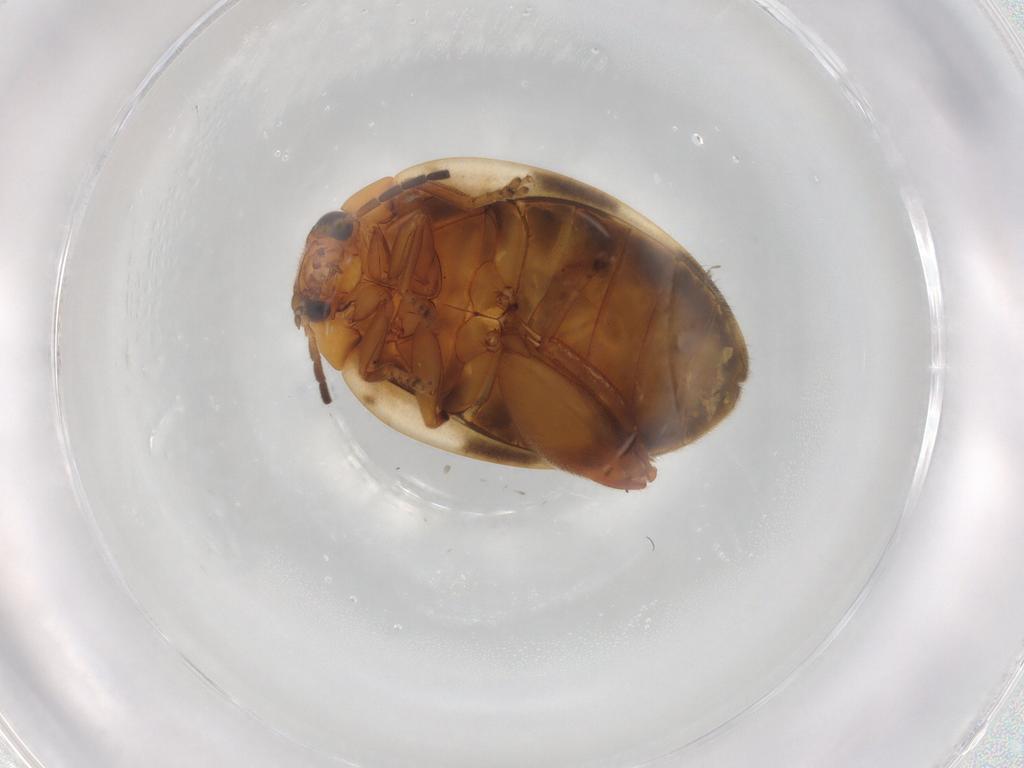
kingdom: Animalia
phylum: Arthropoda
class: Insecta
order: Coleoptera
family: Scirtidae
